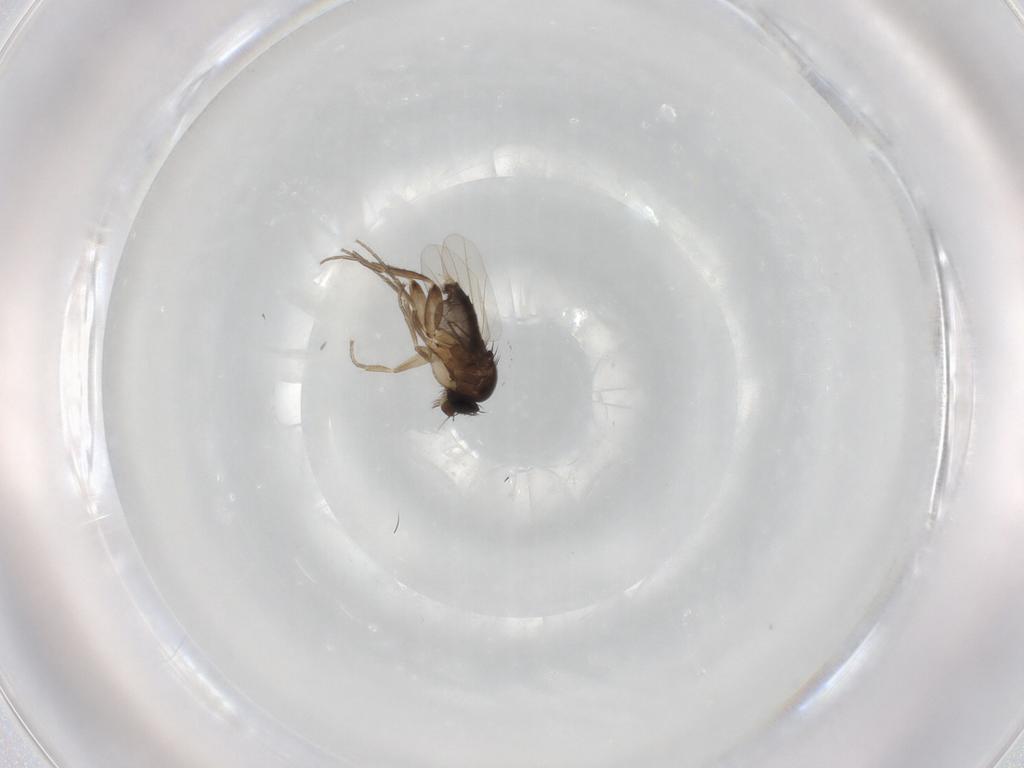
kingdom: Animalia
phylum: Arthropoda
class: Insecta
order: Diptera
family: Phoridae
